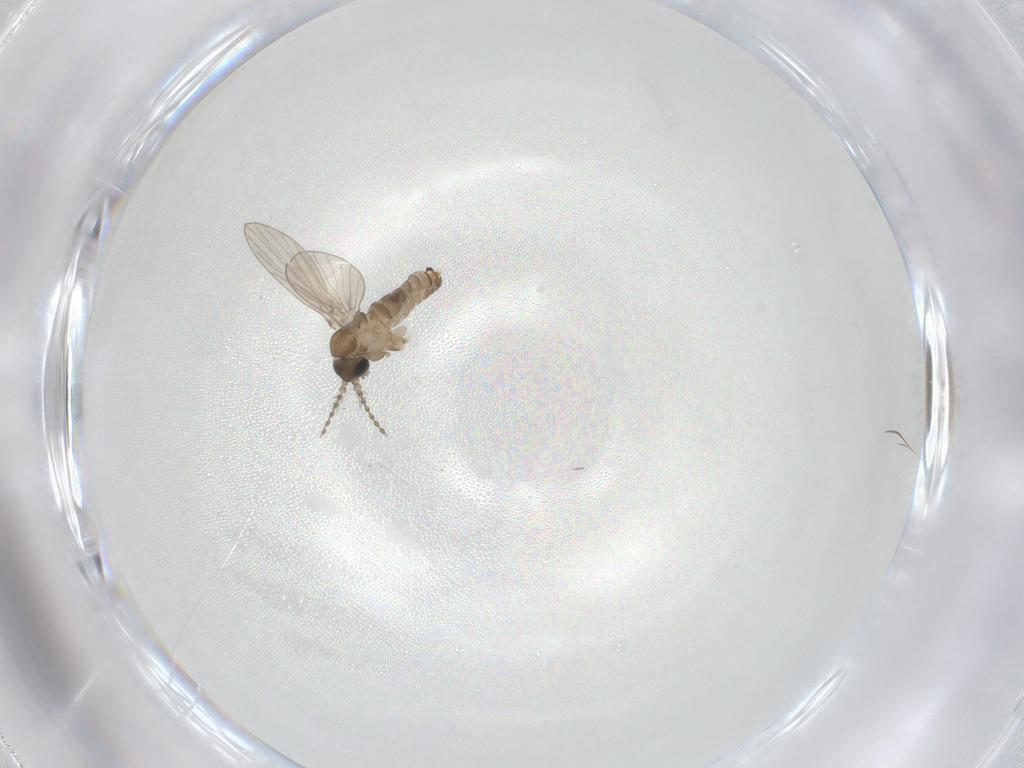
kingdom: Animalia
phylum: Arthropoda
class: Insecta
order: Diptera
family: Psychodidae
